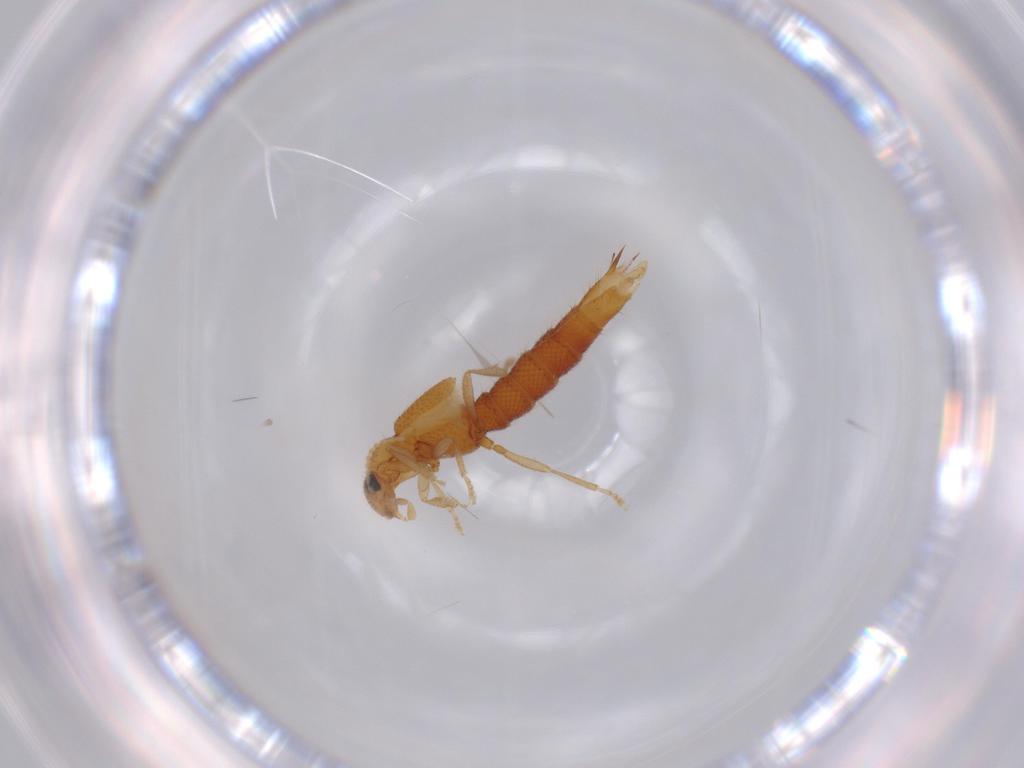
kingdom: Animalia
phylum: Arthropoda
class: Insecta
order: Coleoptera
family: Staphylinidae
